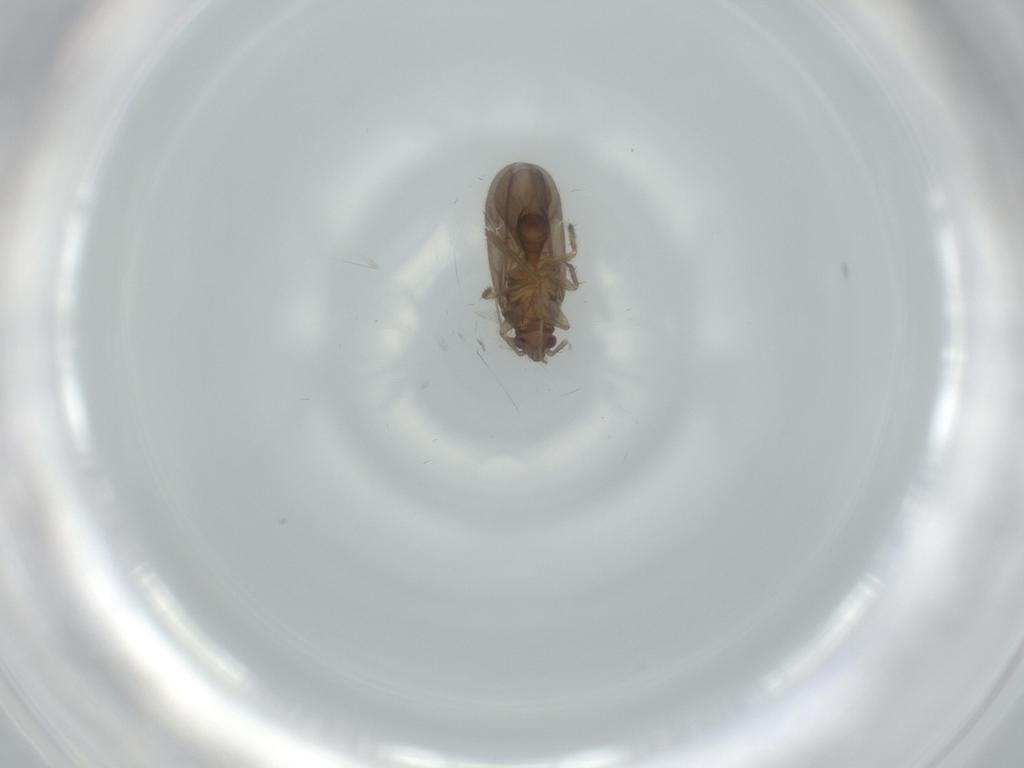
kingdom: Animalia
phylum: Arthropoda
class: Insecta
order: Hemiptera
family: Ceratocombidae
